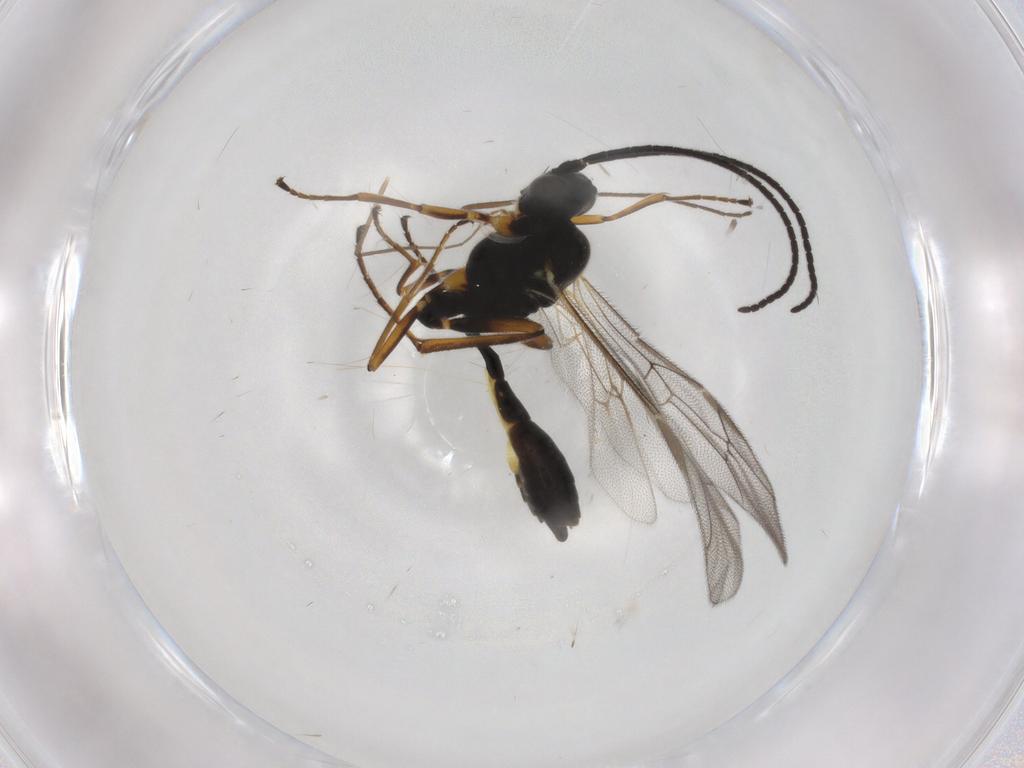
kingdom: Animalia
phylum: Arthropoda
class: Insecta
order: Hymenoptera
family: Ichneumonidae
